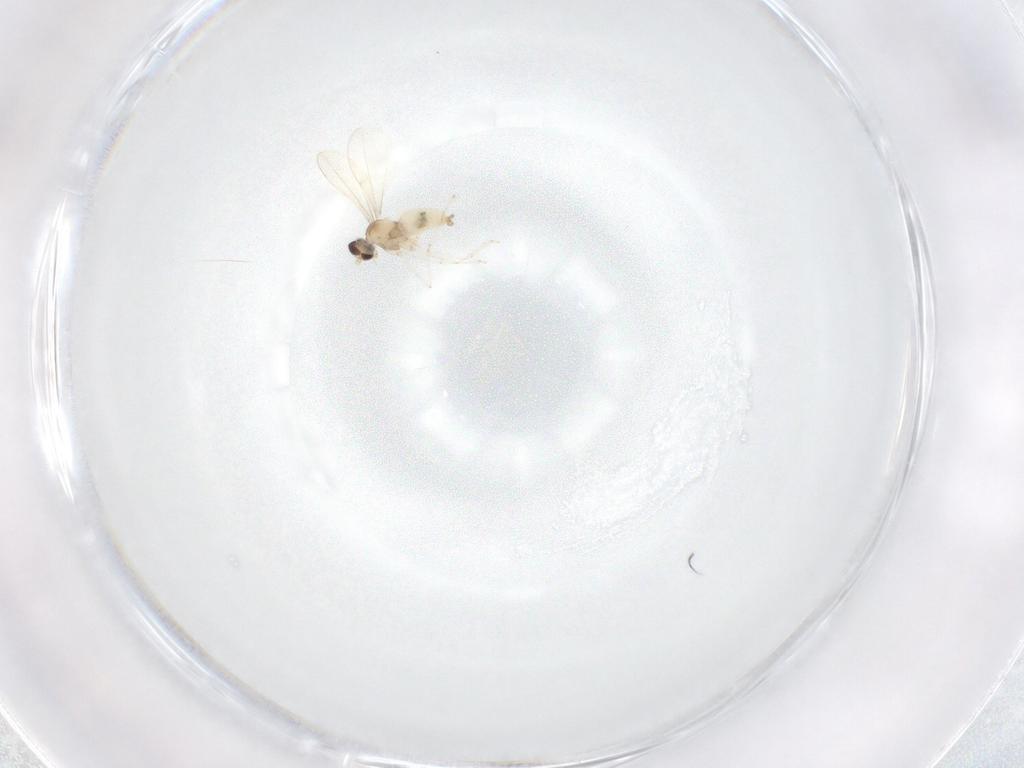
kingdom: Animalia
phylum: Arthropoda
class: Insecta
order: Diptera
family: Cecidomyiidae
